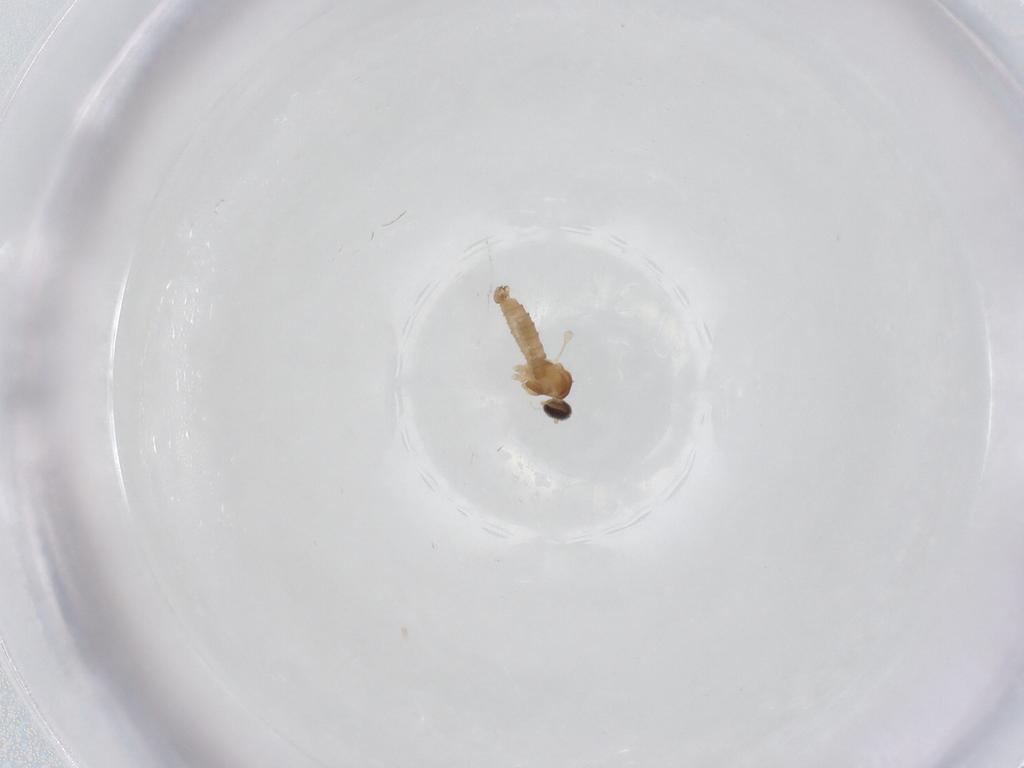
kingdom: Animalia
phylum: Arthropoda
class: Insecta
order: Diptera
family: Cecidomyiidae
